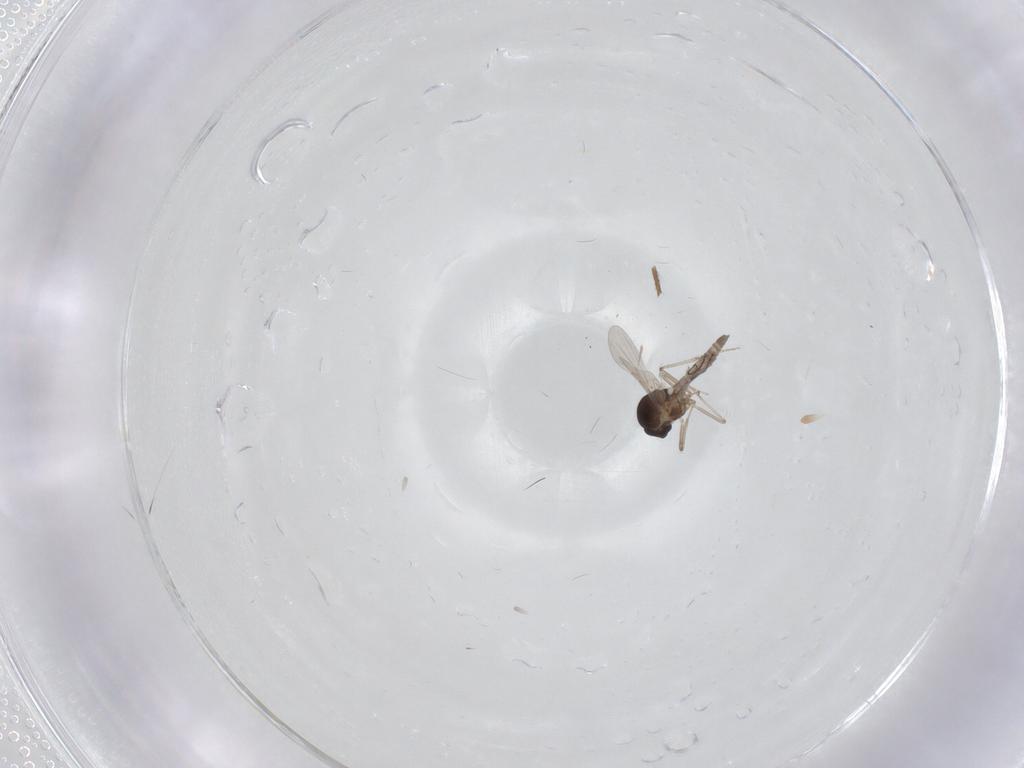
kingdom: Animalia
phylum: Arthropoda
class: Insecta
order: Diptera
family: Ceratopogonidae
